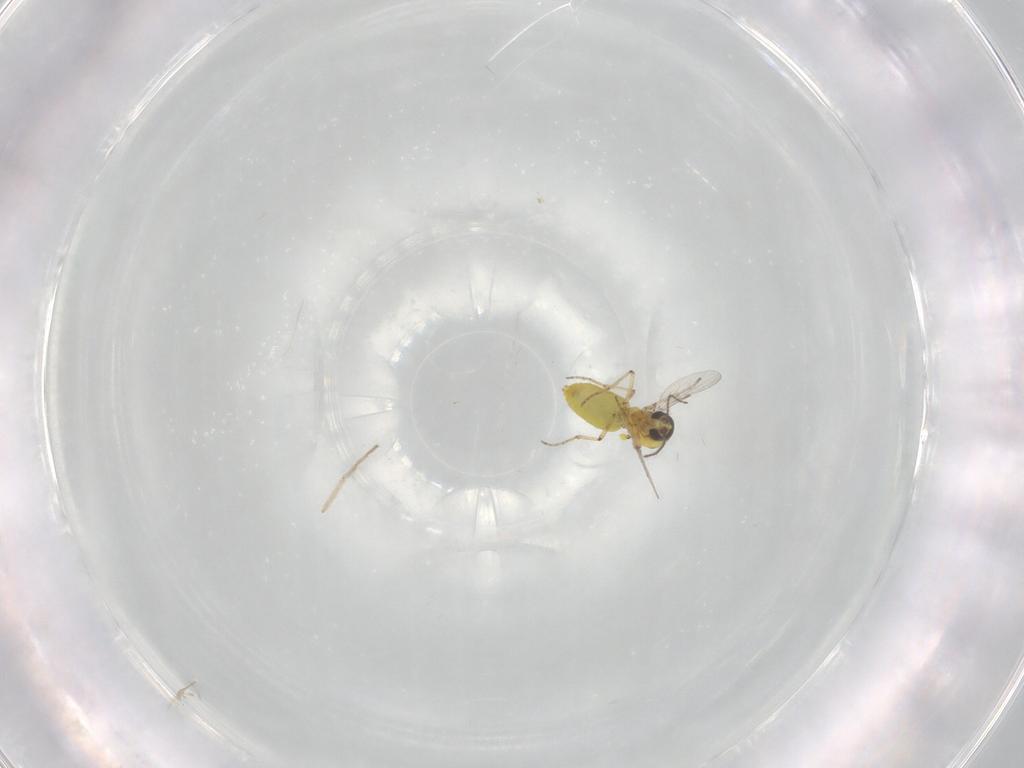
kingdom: Animalia
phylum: Arthropoda
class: Insecta
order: Diptera
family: Ceratopogonidae
